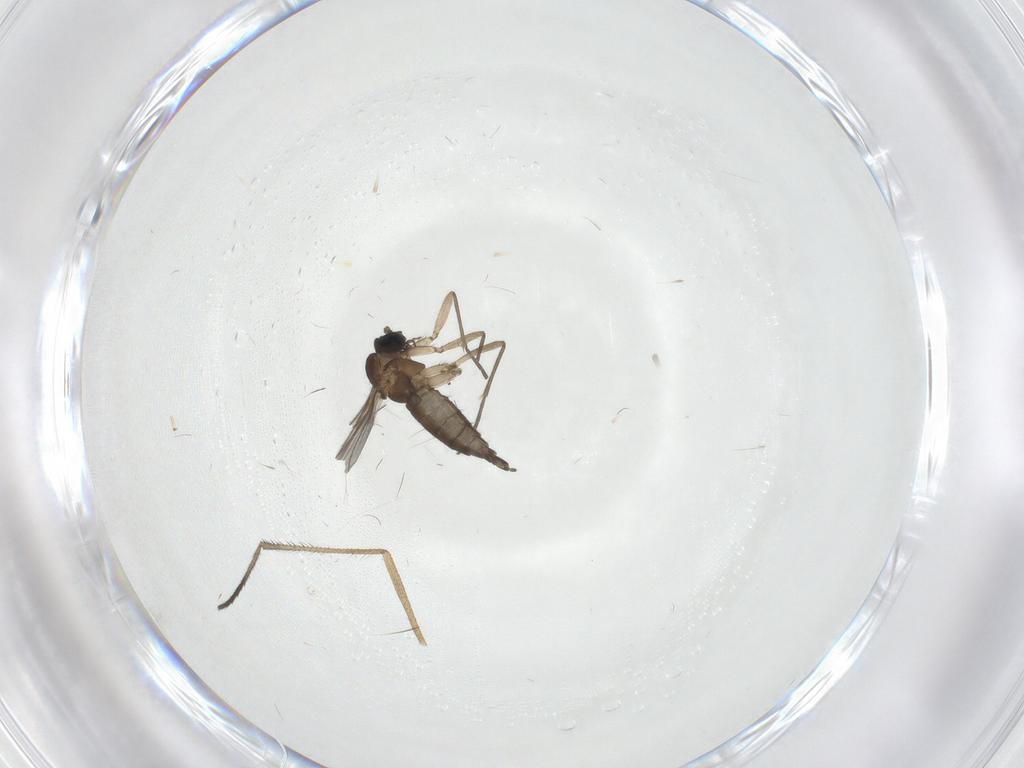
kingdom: Animalia
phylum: Arthropoda
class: Insecta
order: Diptera
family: Sciaridae
